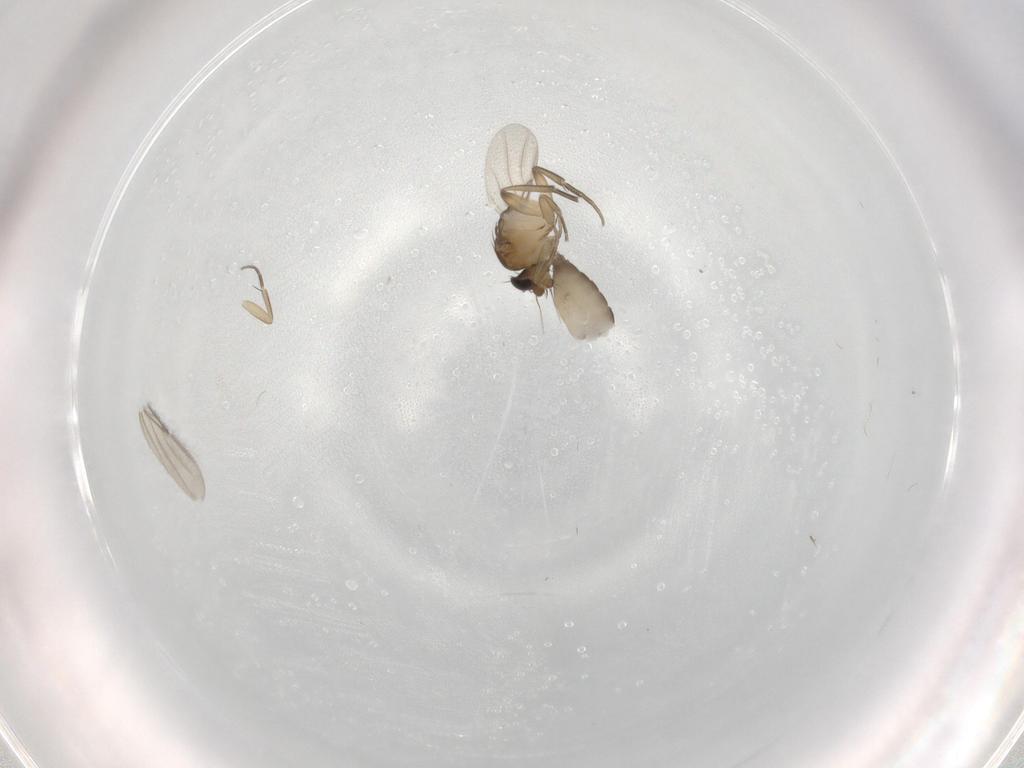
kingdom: Animalia
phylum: Arthropoda
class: Insecta
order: Diptera
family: Phoridae
